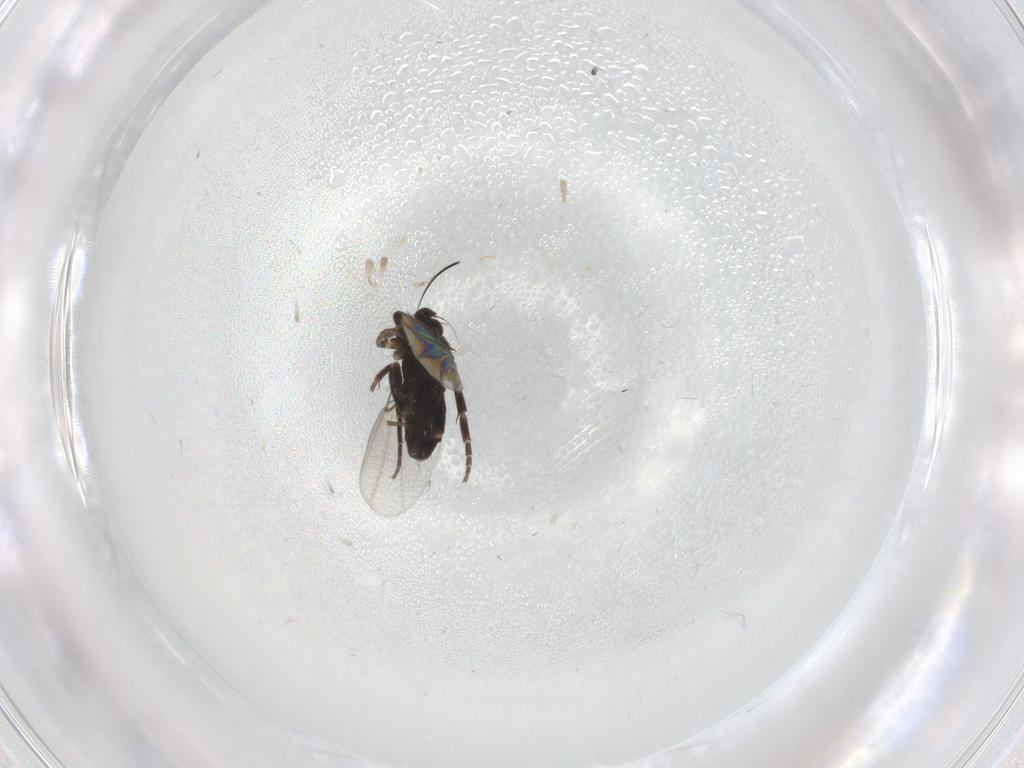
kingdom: Animalia
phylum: Arthropoda
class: Insecta
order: Diptera
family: Phoridae
